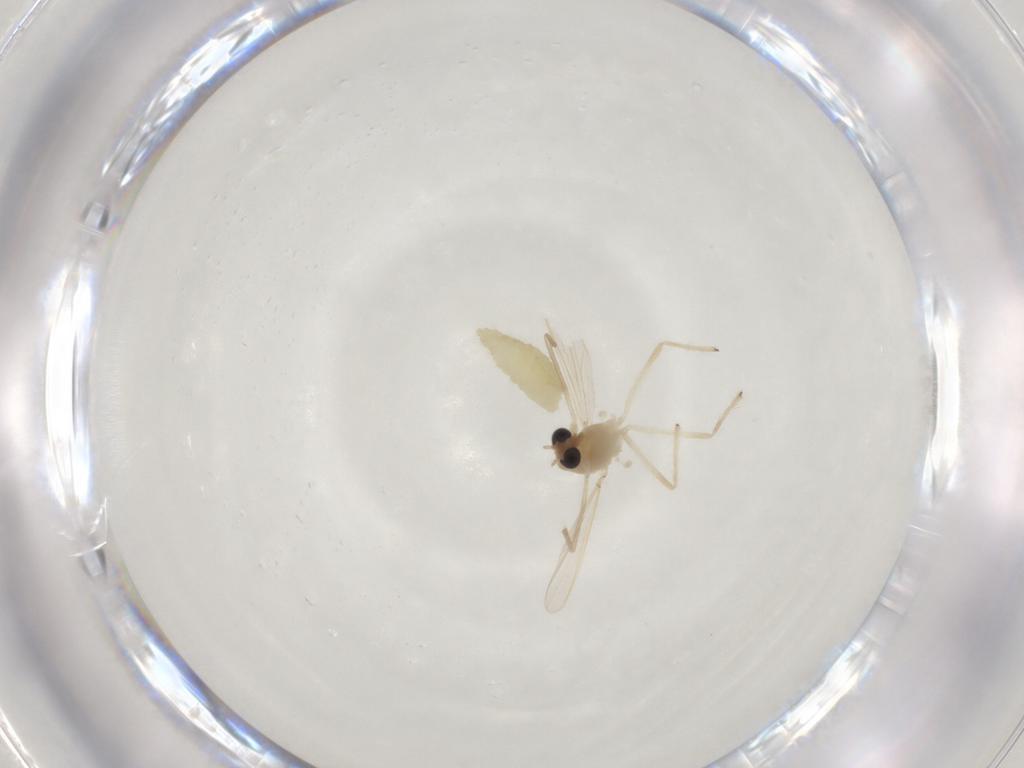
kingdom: Animalia
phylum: Arthropoda
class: Insecta
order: Diptera
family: Chironomidae
